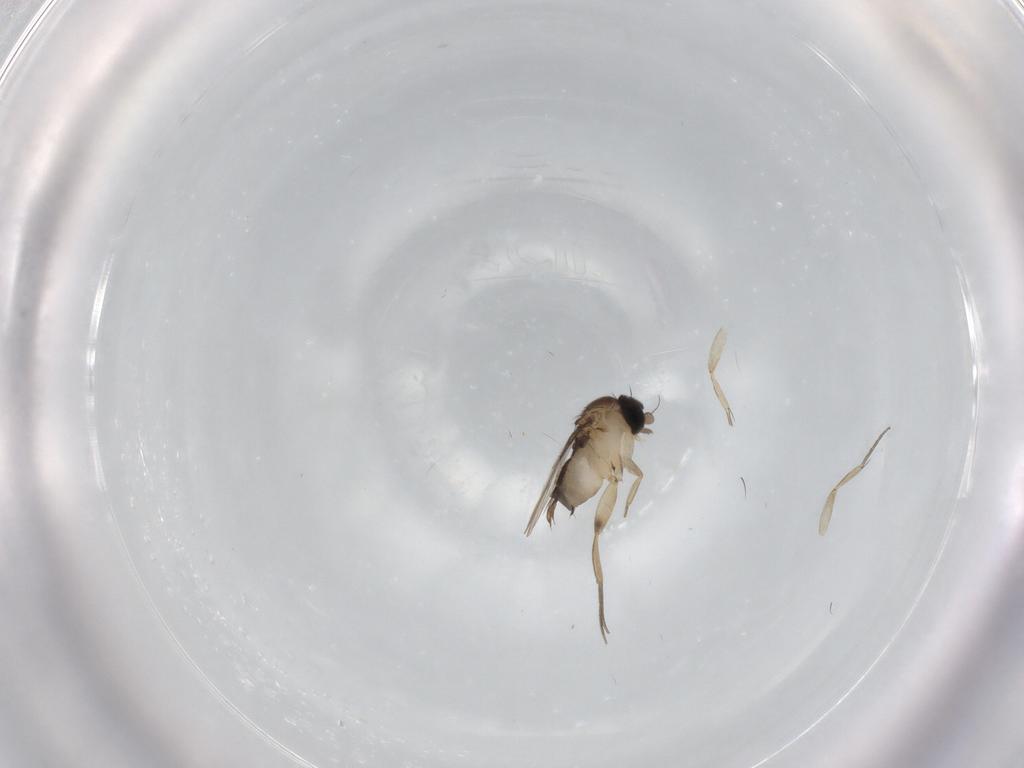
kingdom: Animalia
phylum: Arthropoda
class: Insecta
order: Diptera
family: Phoridae
